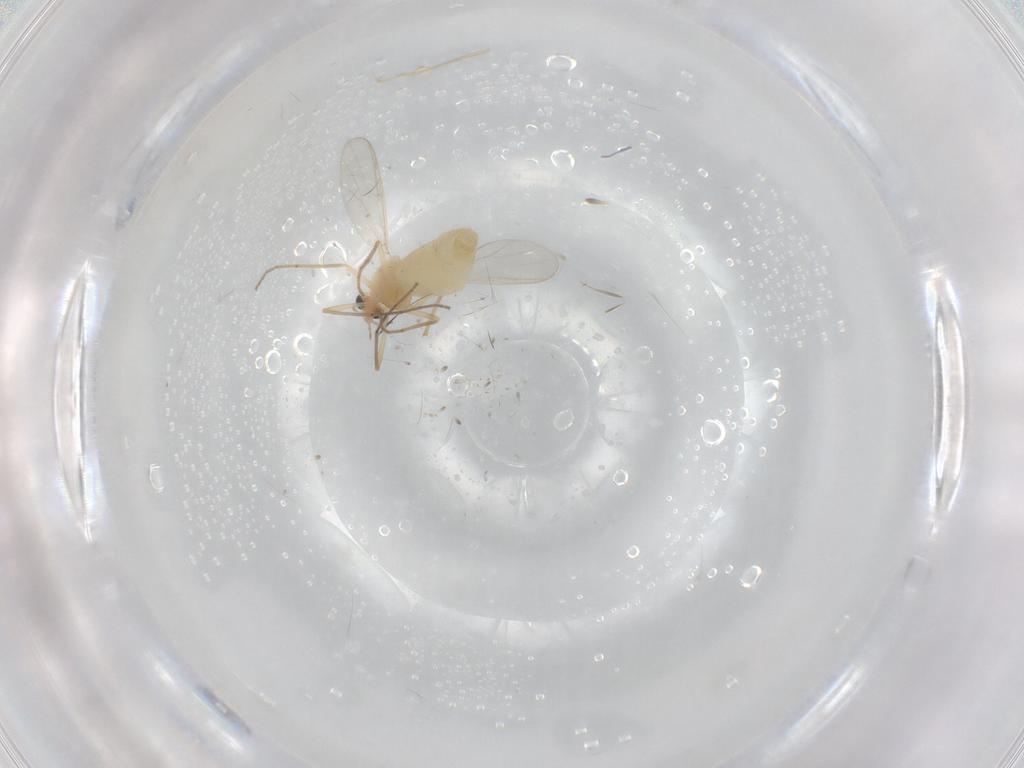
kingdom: Animalia
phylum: Arthropoda
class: Insecta
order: Diptera
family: Chironomidae
